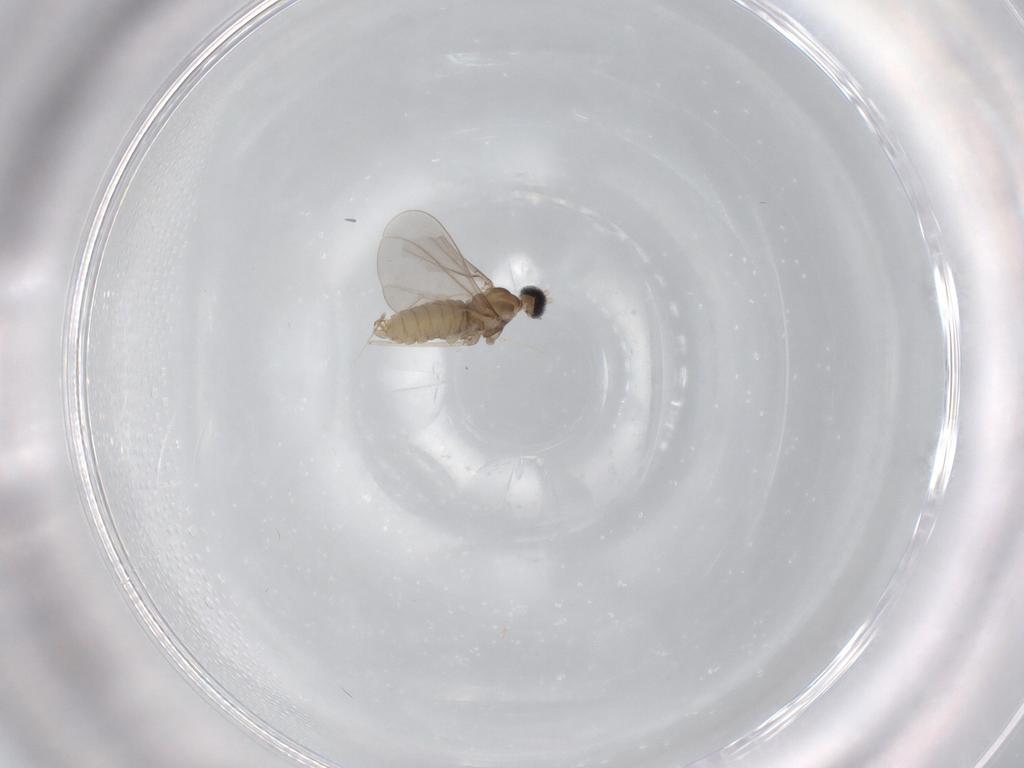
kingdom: Animalia
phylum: Arthropoda
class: Insecta
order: Diptera
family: Cecidomyiidae
